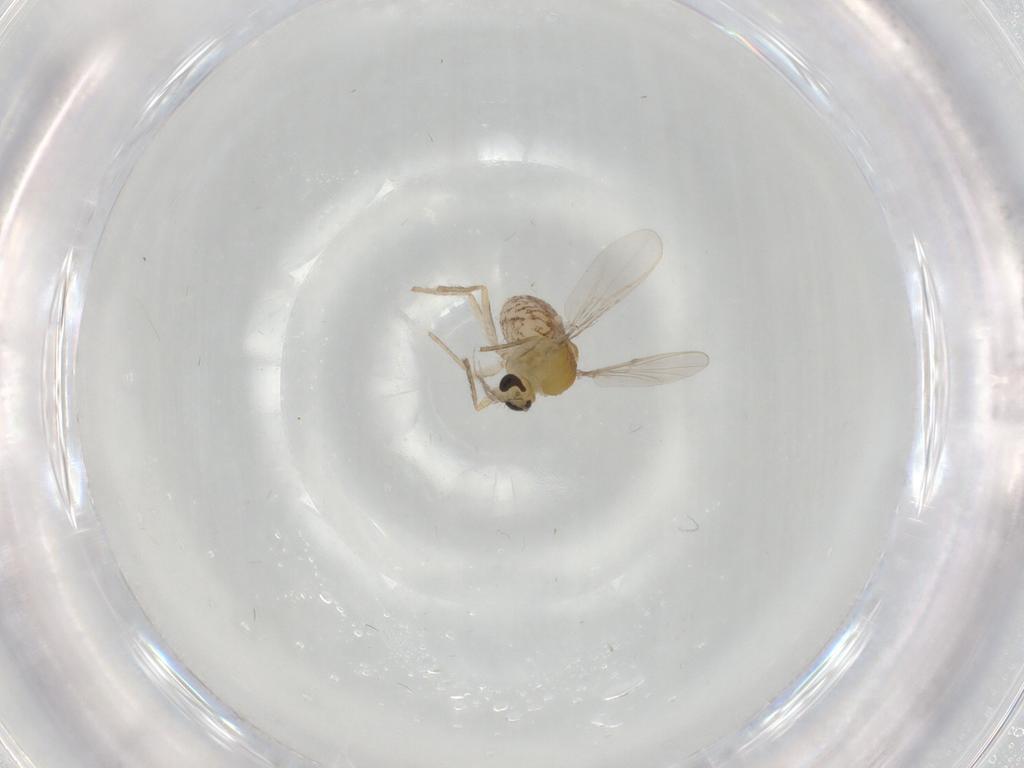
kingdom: Animalia
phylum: Arthropoda
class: Insecta
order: Diptera
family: Chironomidae
